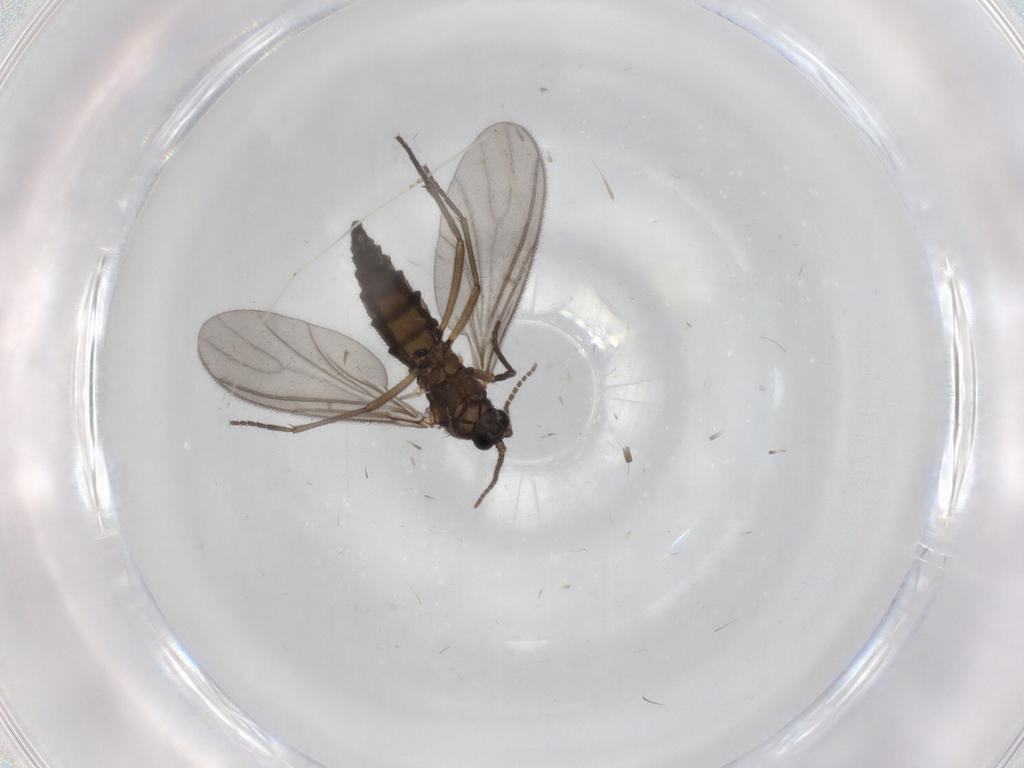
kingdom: Animalia
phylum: Arthropoda
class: Insecta
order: Diptera
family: Sciaridae
